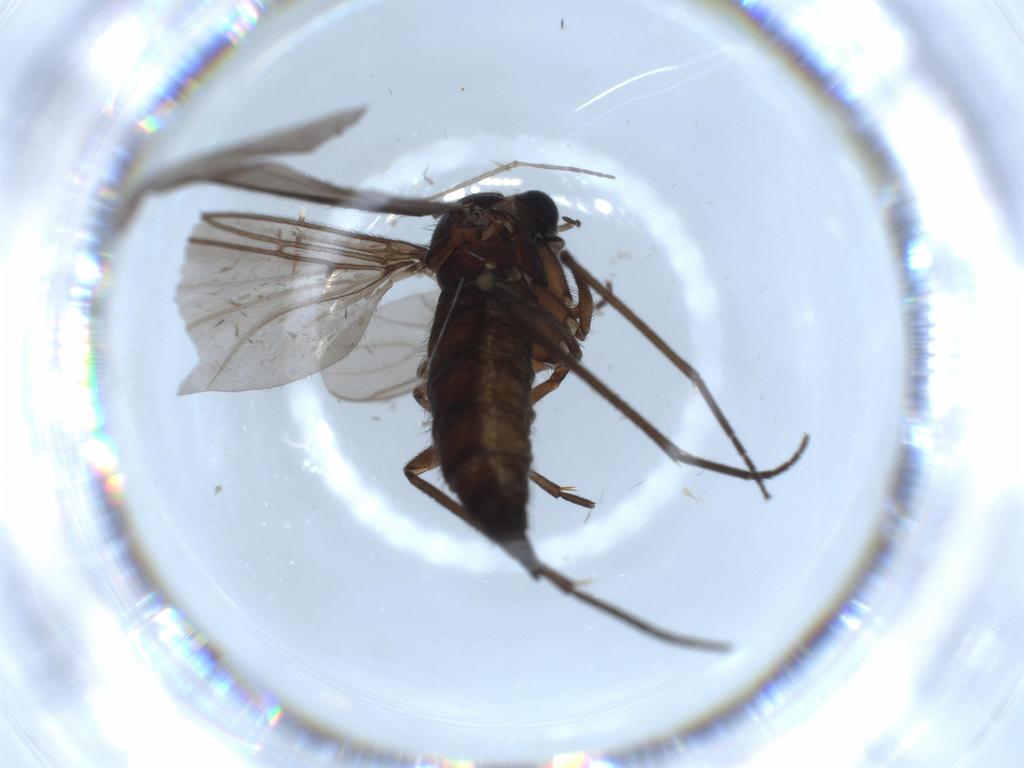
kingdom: Animalia
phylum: Arthropoda
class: Insecta
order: Diptera
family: Sciaridae
